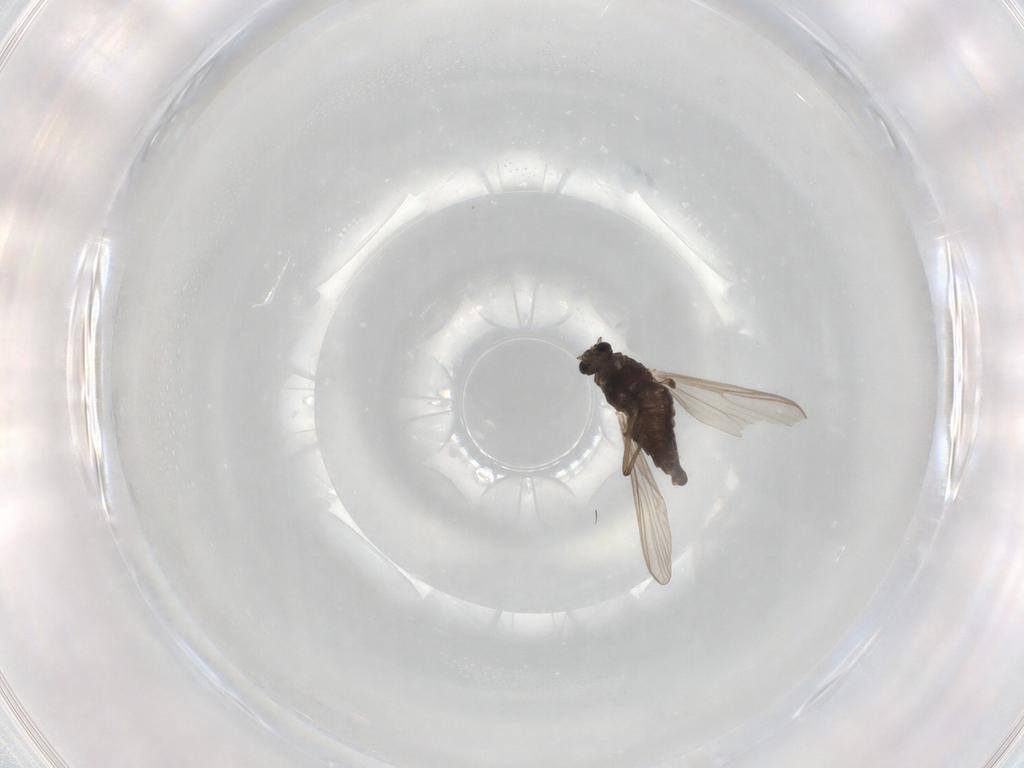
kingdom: Animalia
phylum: Arthropoda
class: Insecta
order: Diptera
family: Chironomidae
